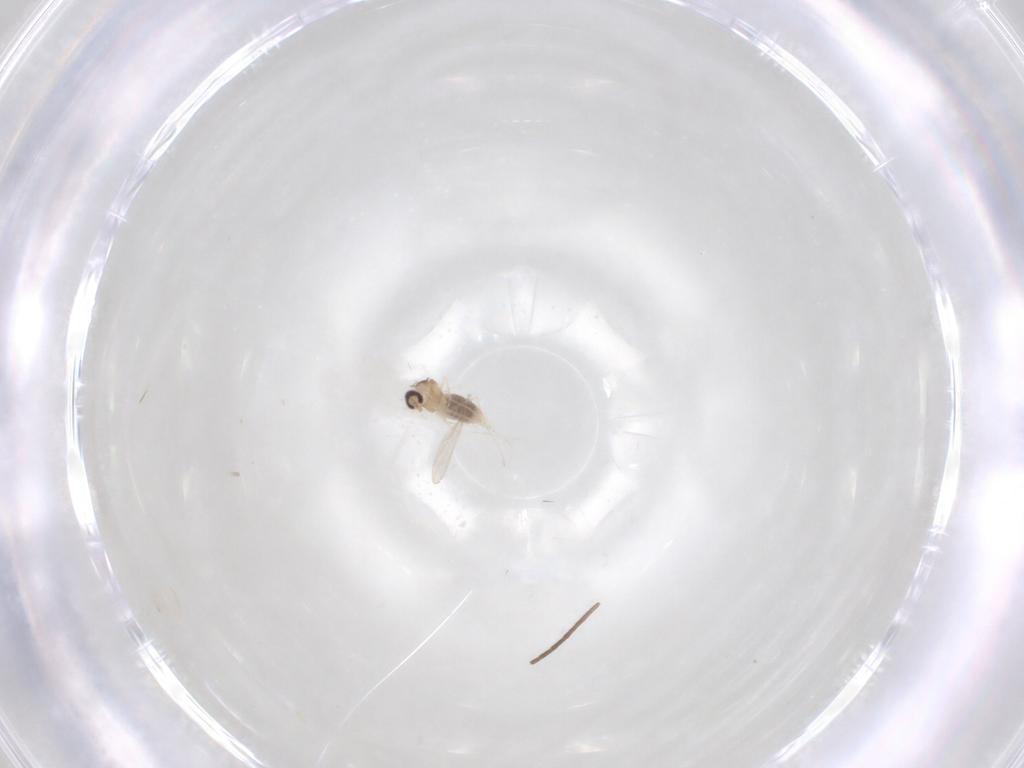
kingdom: Animalia
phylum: Arthropoda
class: Insecta
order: Diptera
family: Sciaridae
